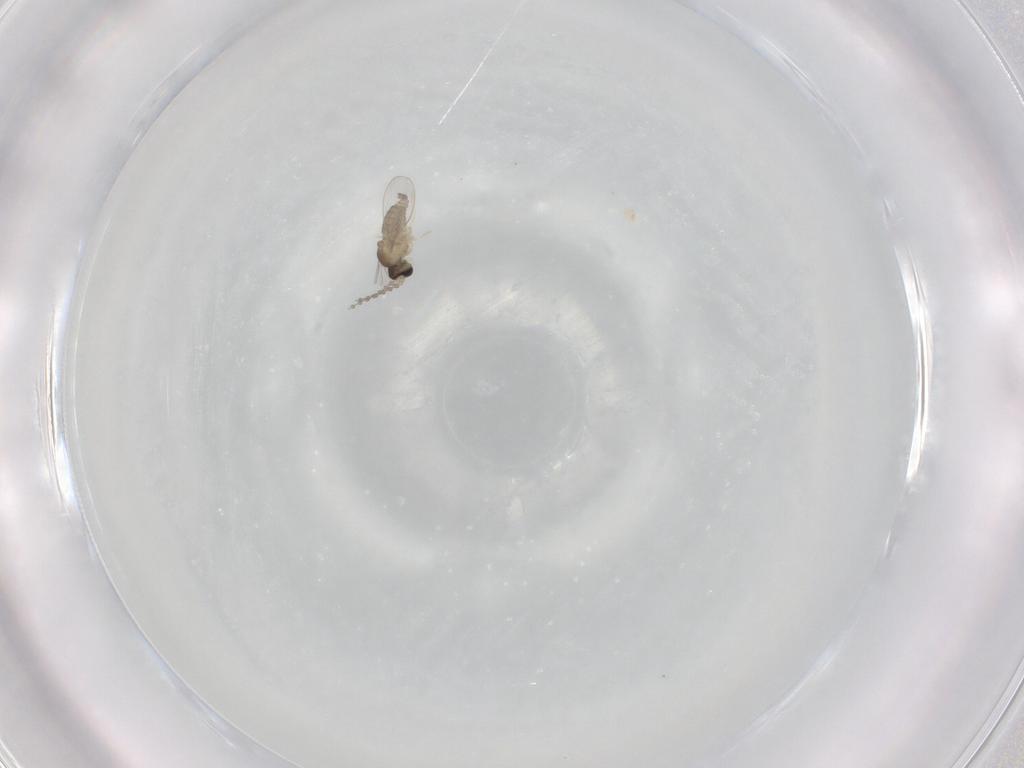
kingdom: Animalia
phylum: Arthropoda
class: Insecta
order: Diptera
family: Cecidomyiidae
